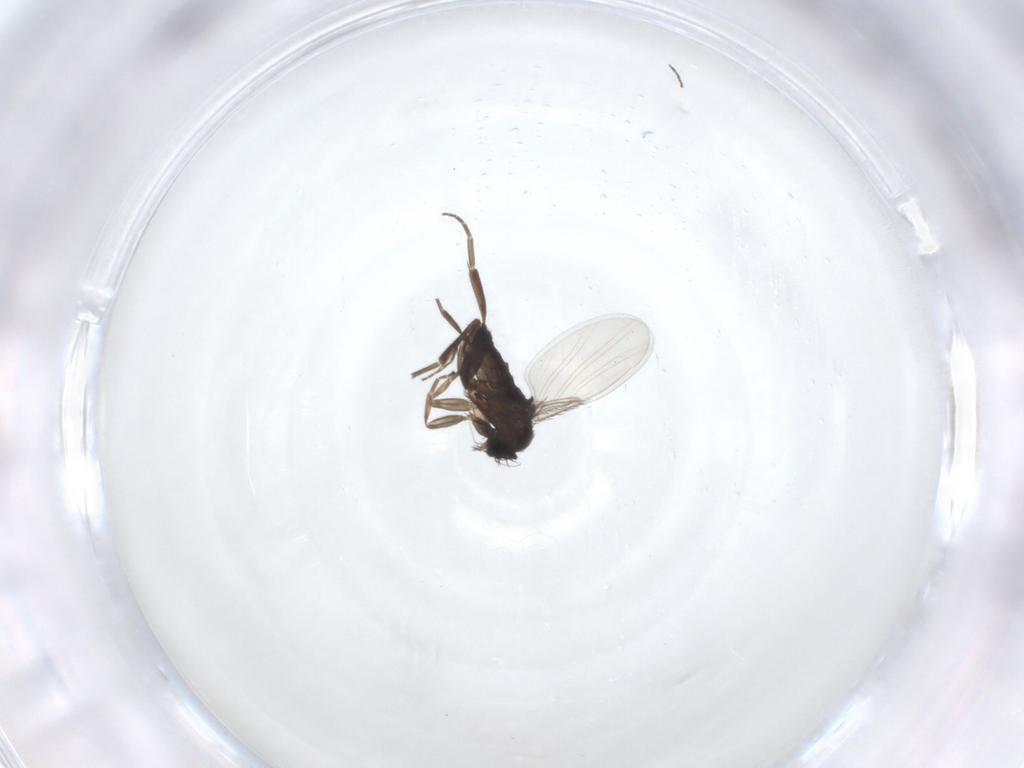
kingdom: Animalia
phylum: Arthropoda
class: Insecta
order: Diptera
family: Phoridae
